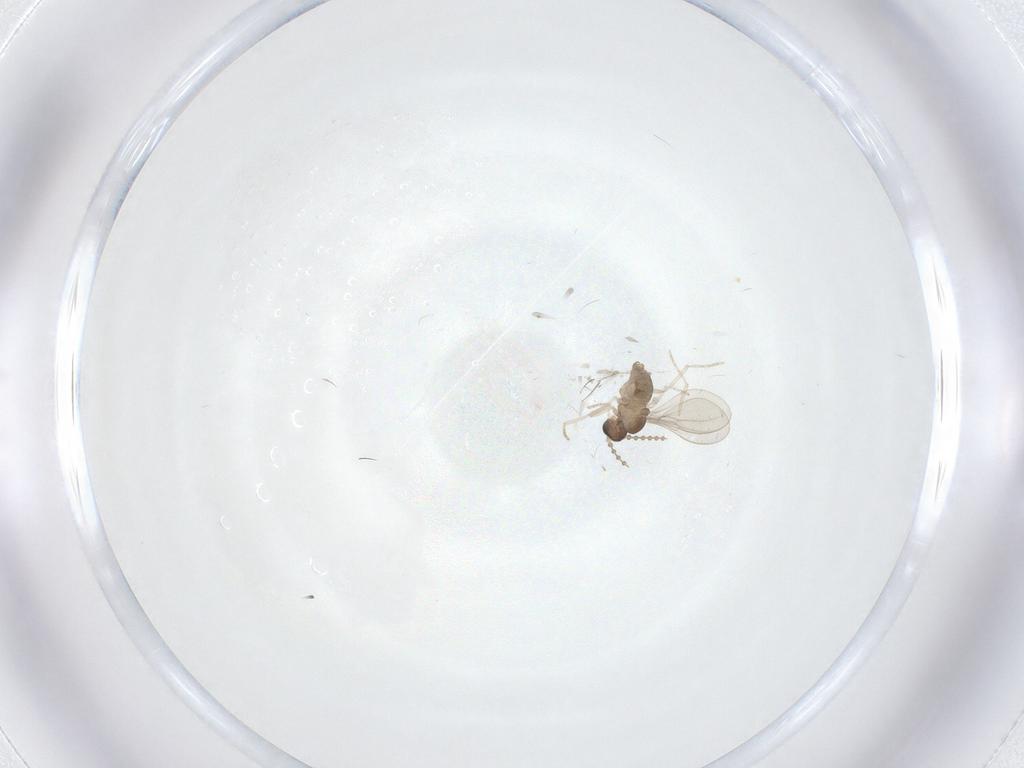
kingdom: Animalia
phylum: Arthropoda
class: Insecta
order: Diptera
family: Cecidomyiidae
